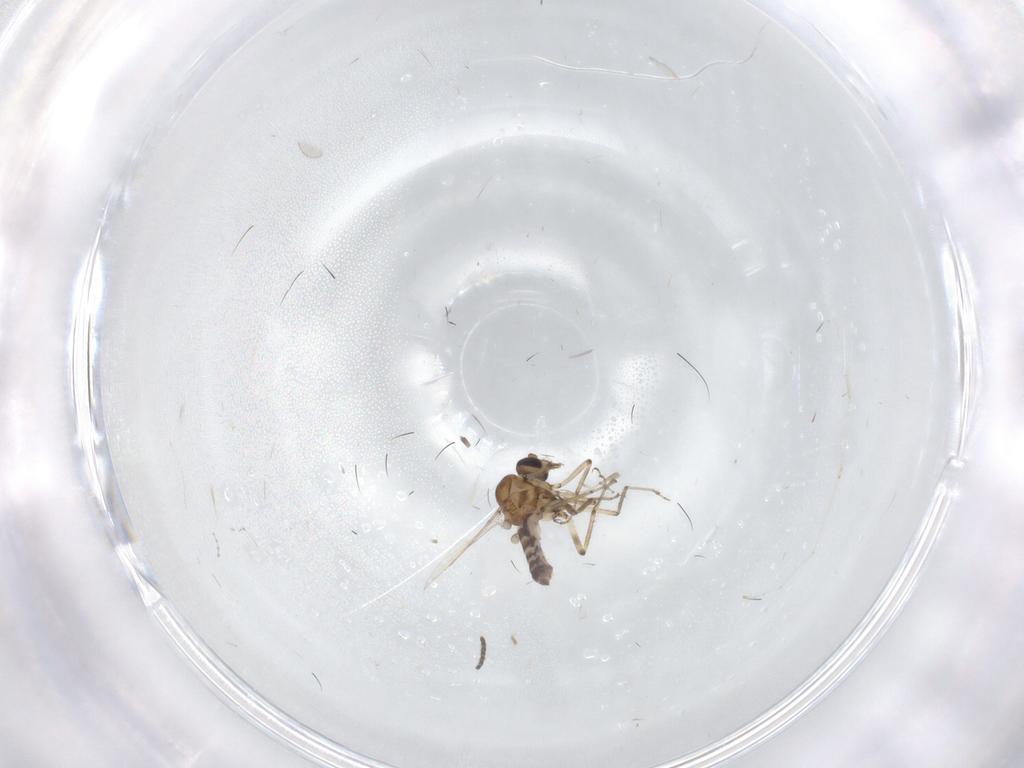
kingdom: Animalia
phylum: Arthropoda
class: Insecta
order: Diptera
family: Sciaridae
